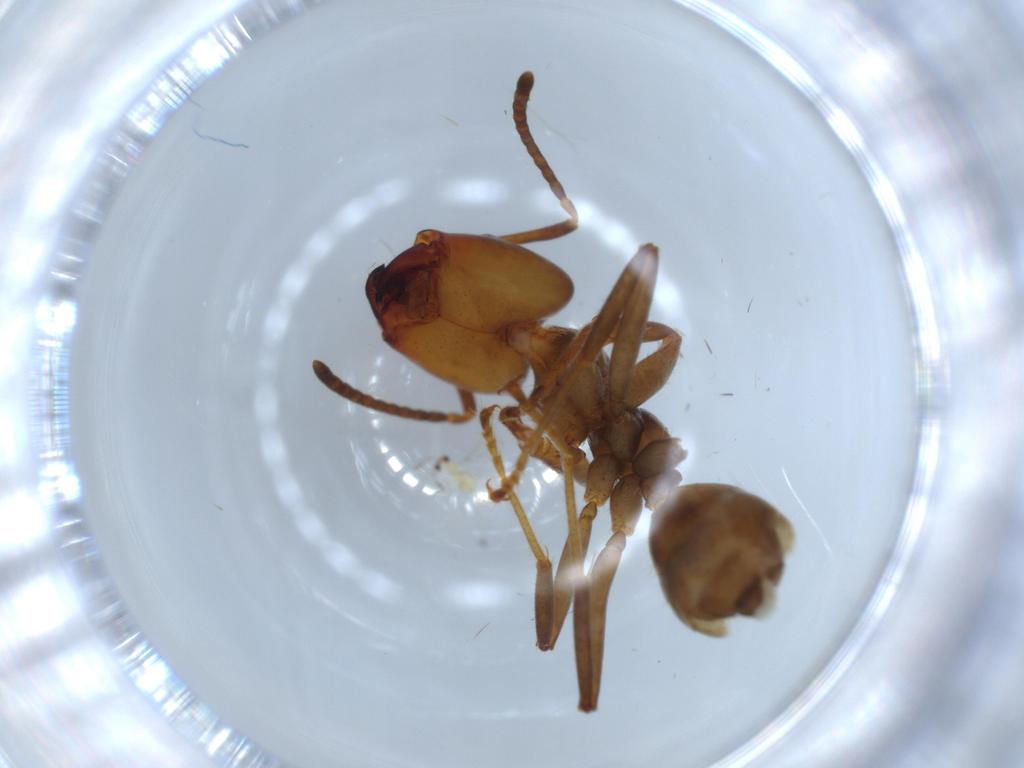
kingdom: Animalia
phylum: Arthropoda
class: Insecta
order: Hymenoptera
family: Formicidae
